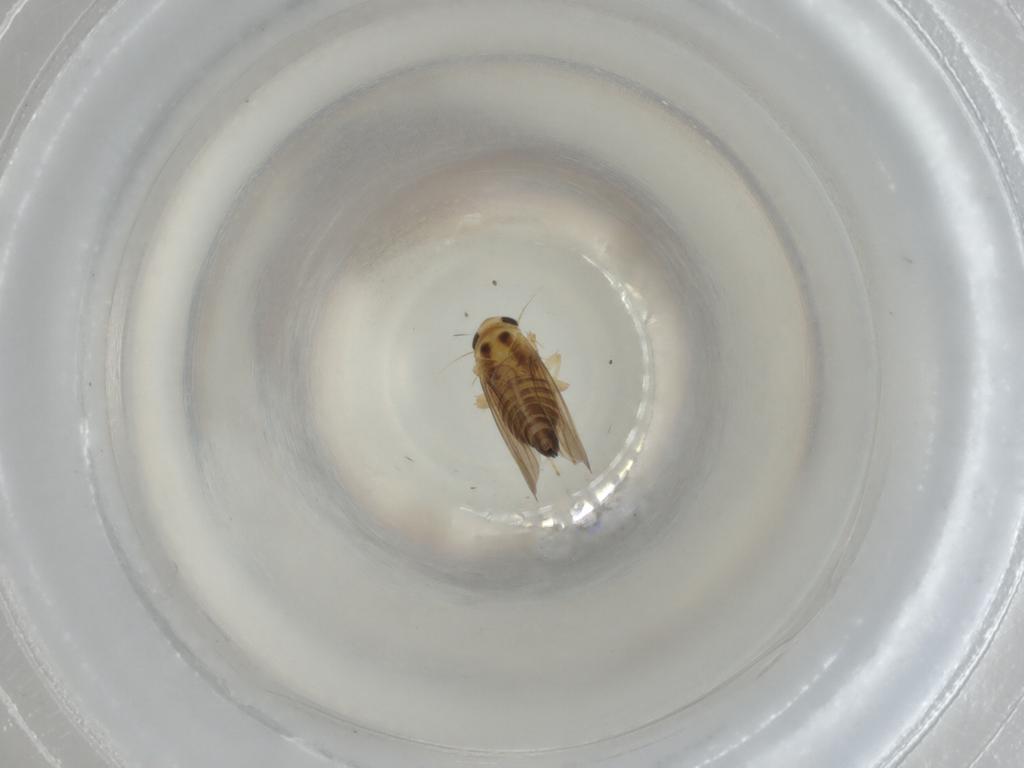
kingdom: Animalia
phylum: Arthropoda
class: Insecta
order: Hemiptera
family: Cicadellidae
